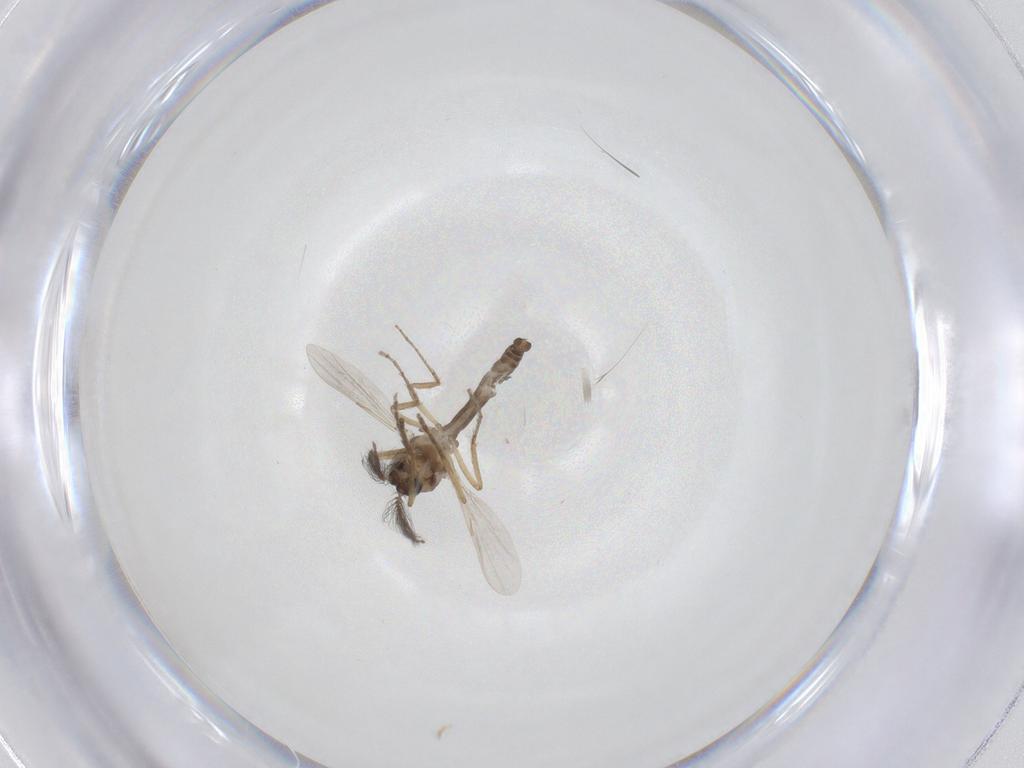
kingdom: Animalia
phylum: Arthropoda
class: Insecta
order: Diptera
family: Ceratopogonidae
